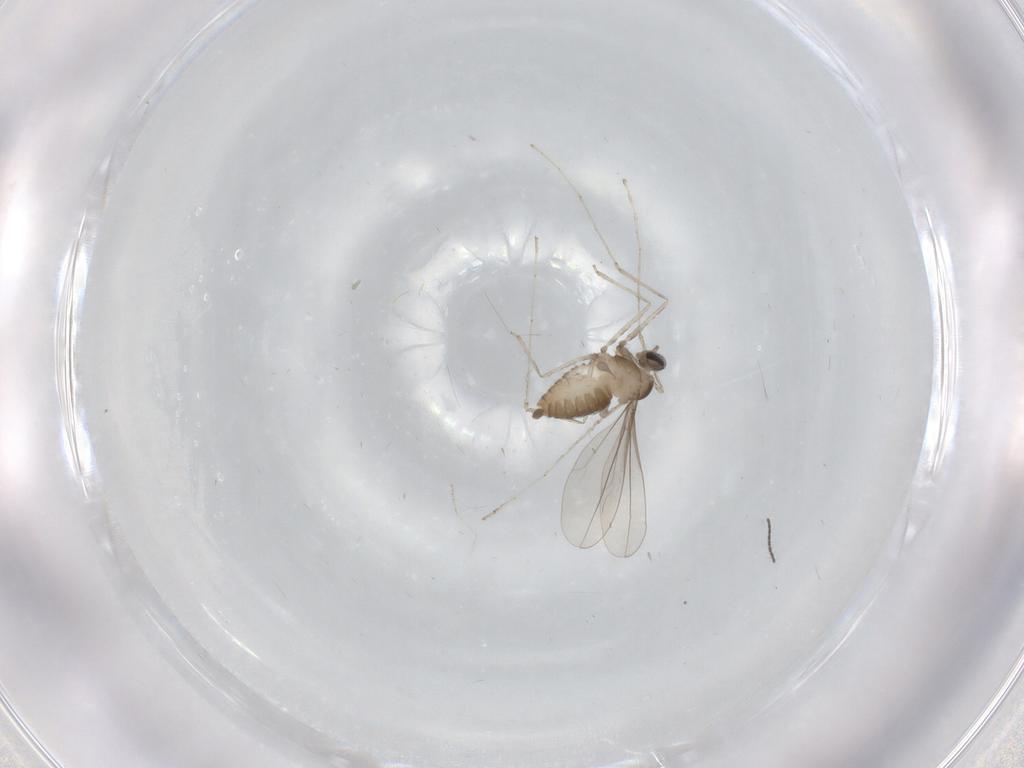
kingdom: Animalia
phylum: Arthropoda
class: Insecta
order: Diptera
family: Cecidomyiidae
